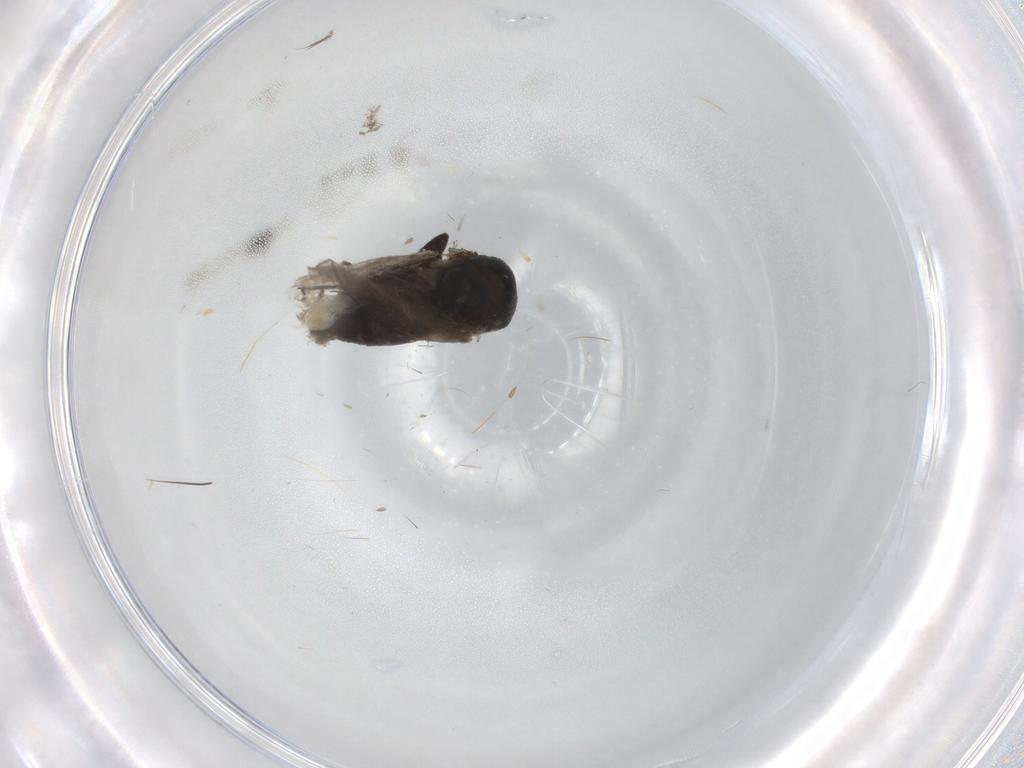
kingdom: Animalia
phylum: Arthropoda
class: Insecta
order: Diptera
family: Chironomidae
